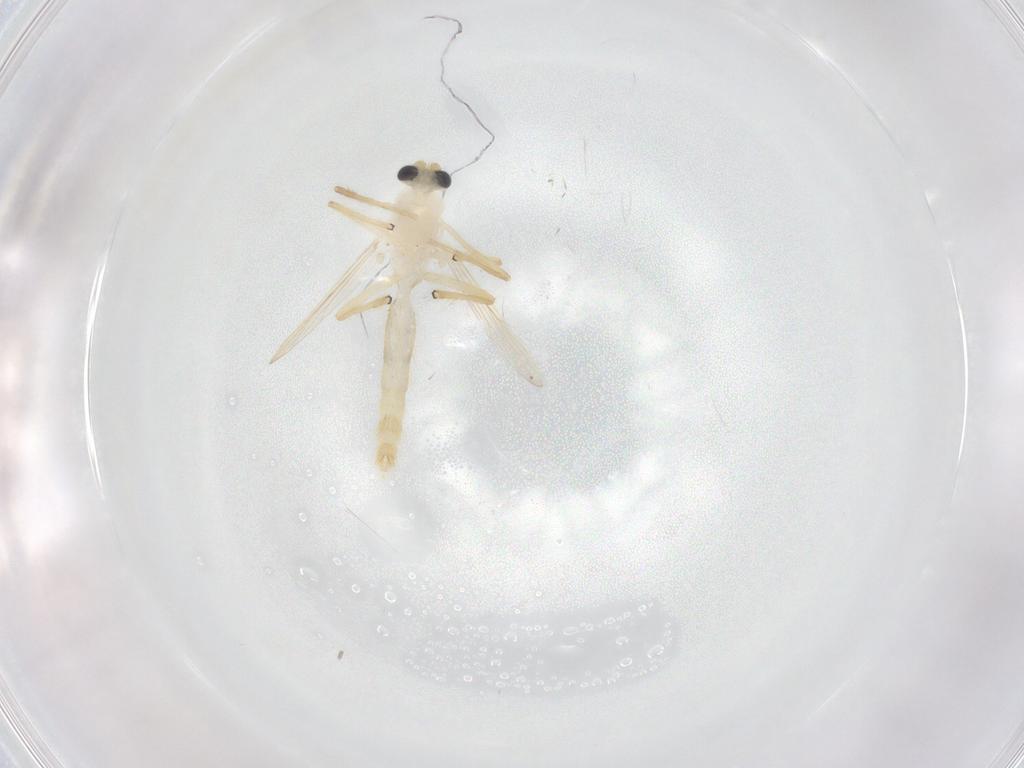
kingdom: Animalia
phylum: Arthropoda
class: Insecta
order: Diptera
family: Chironomidae
